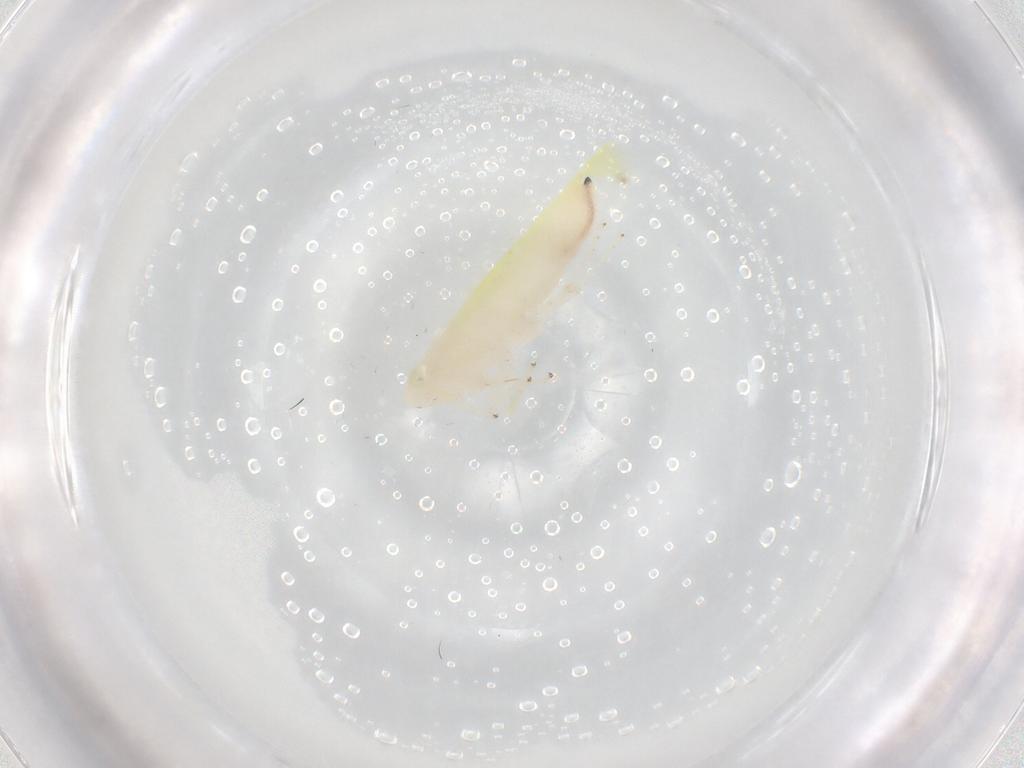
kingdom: Animalia
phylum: Arthropoda
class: Insecta
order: Hemiptera
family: Cicadellidae
